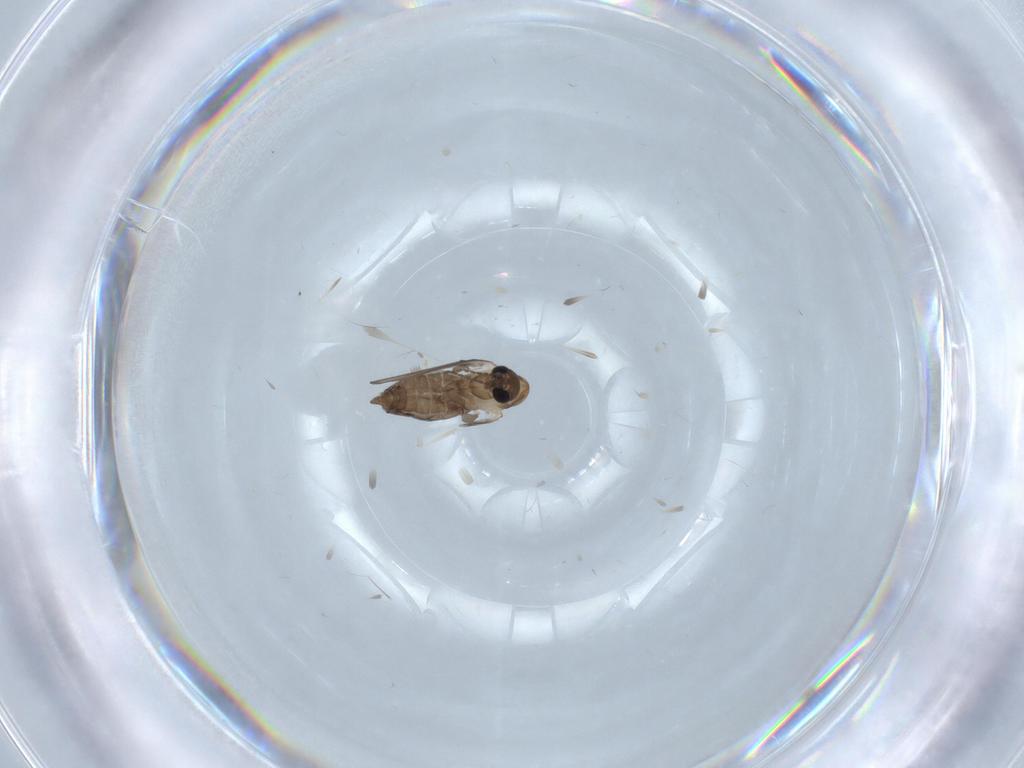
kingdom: Animalia
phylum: Arthropoda
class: Insecta
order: Diptera
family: Psychodidae
